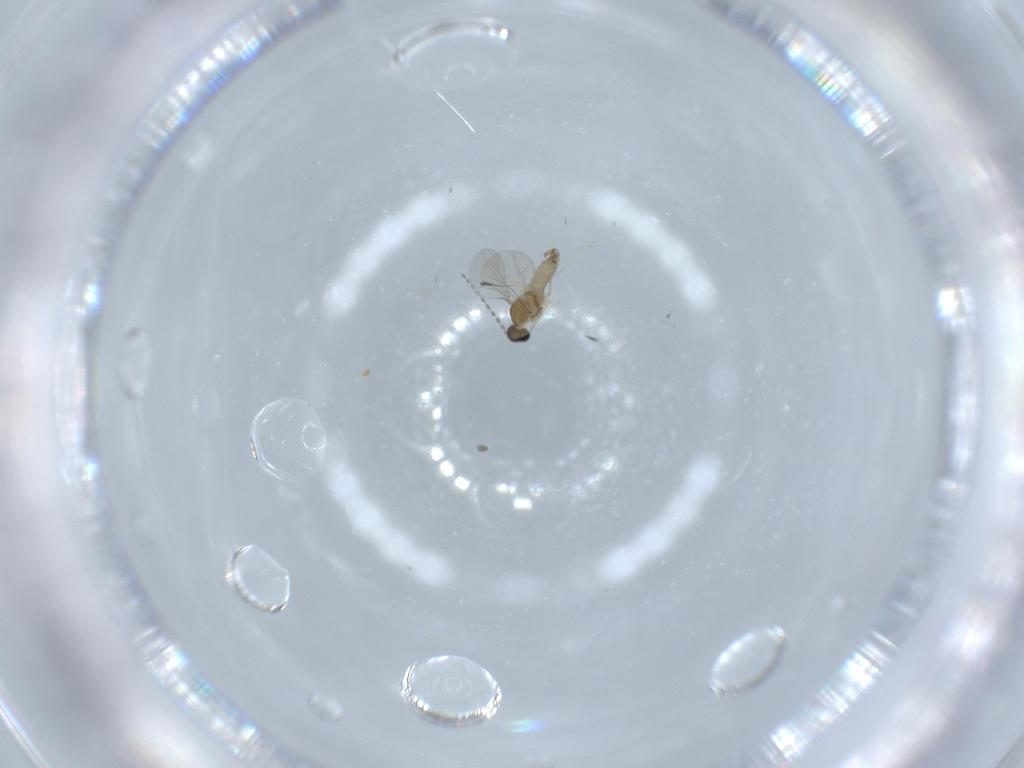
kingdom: Animalia
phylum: Arthropoda
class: Insecta
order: Diptera
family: Cecidomyiidae
